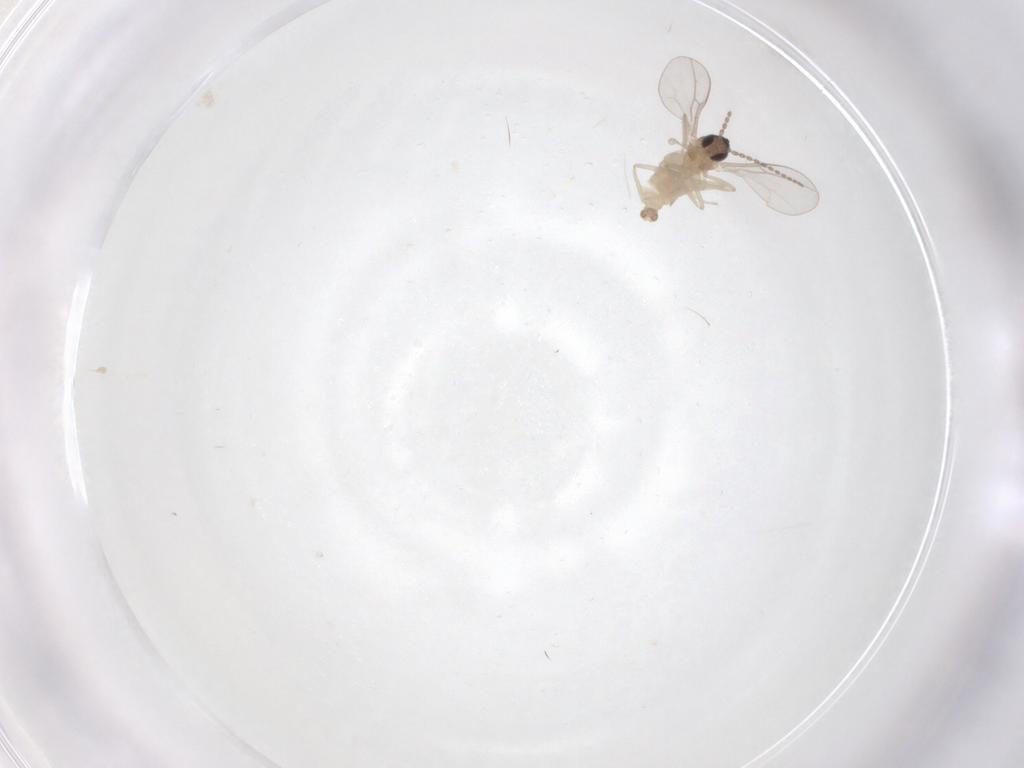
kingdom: Animalia
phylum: Arthropoda
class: Insecta
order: Diptera
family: Cecidomyiidae
